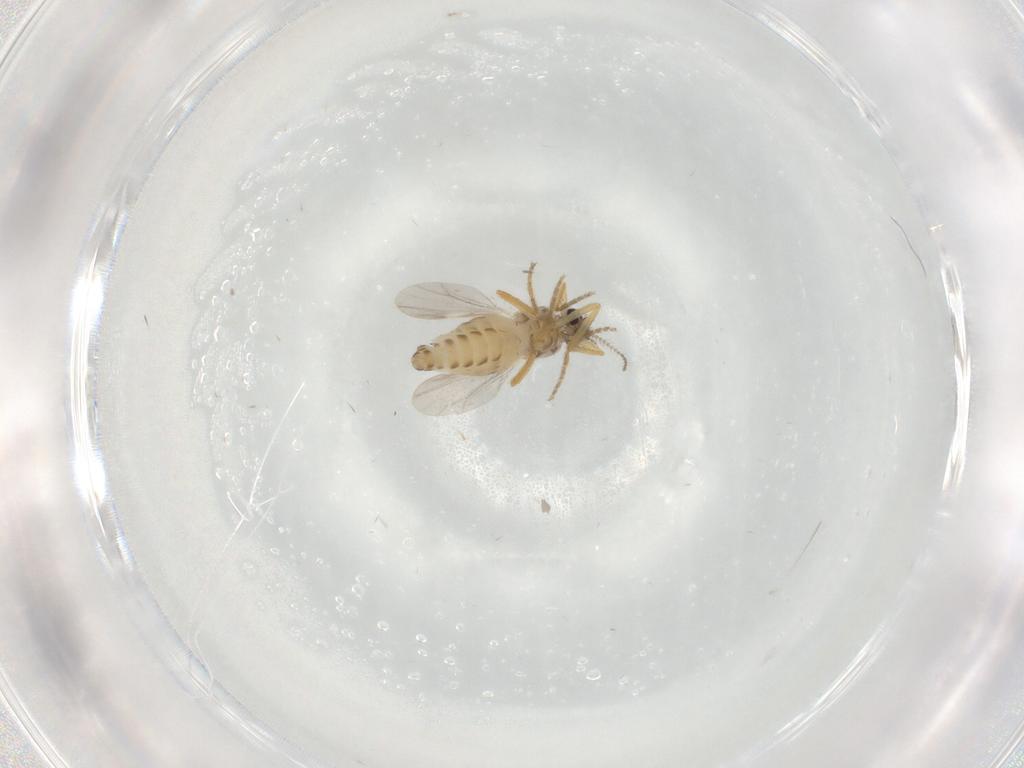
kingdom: Animalia
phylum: Arthropoda
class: Insecta
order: Diptera
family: Ceratopogonidae
